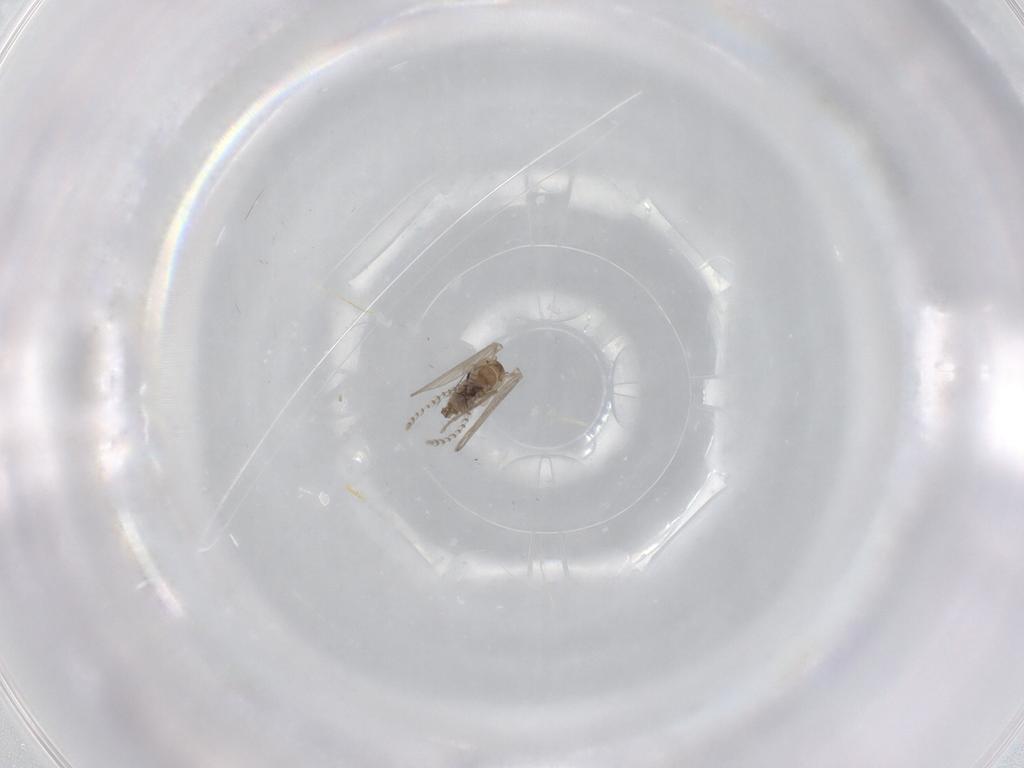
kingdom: Animalia
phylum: Arthropoda
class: Insecta
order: Diptera
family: Psychodidae
